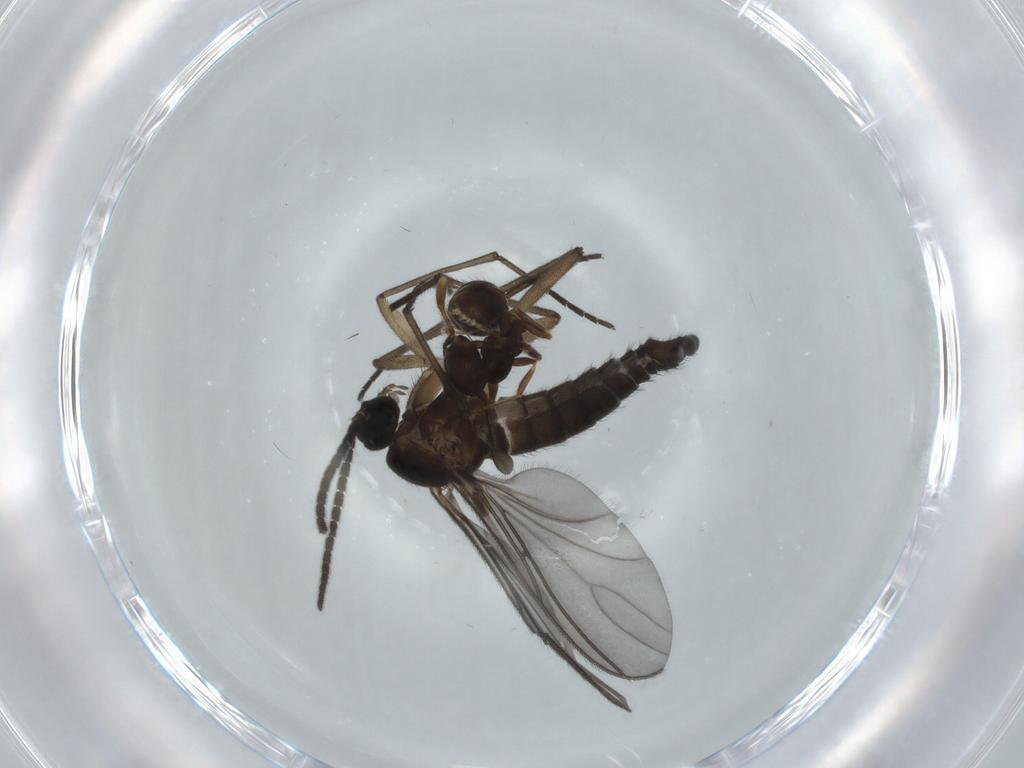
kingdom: Animalia
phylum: Arthropoda
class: Insecta
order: Diptera
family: Sciaridae
